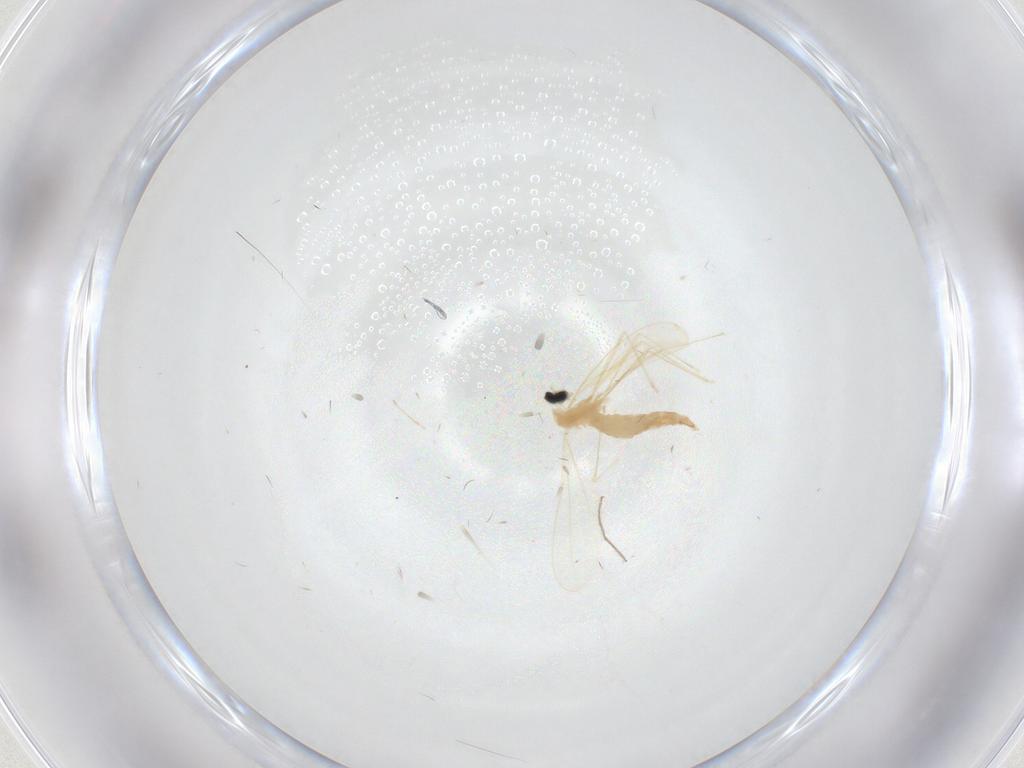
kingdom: Animalia
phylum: Arthropoda
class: Insecta
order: Diptera
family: Cecidomyiidae
